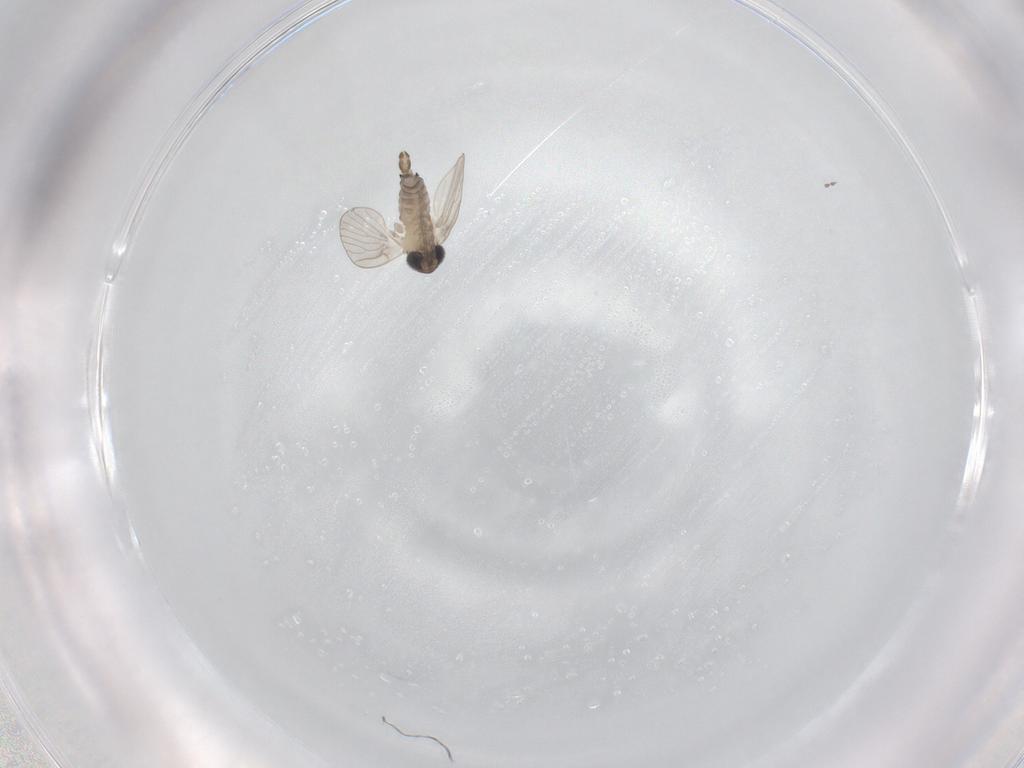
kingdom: Animalia
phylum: Arthropoda
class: Insecta
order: Diptera
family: Psychodidae
